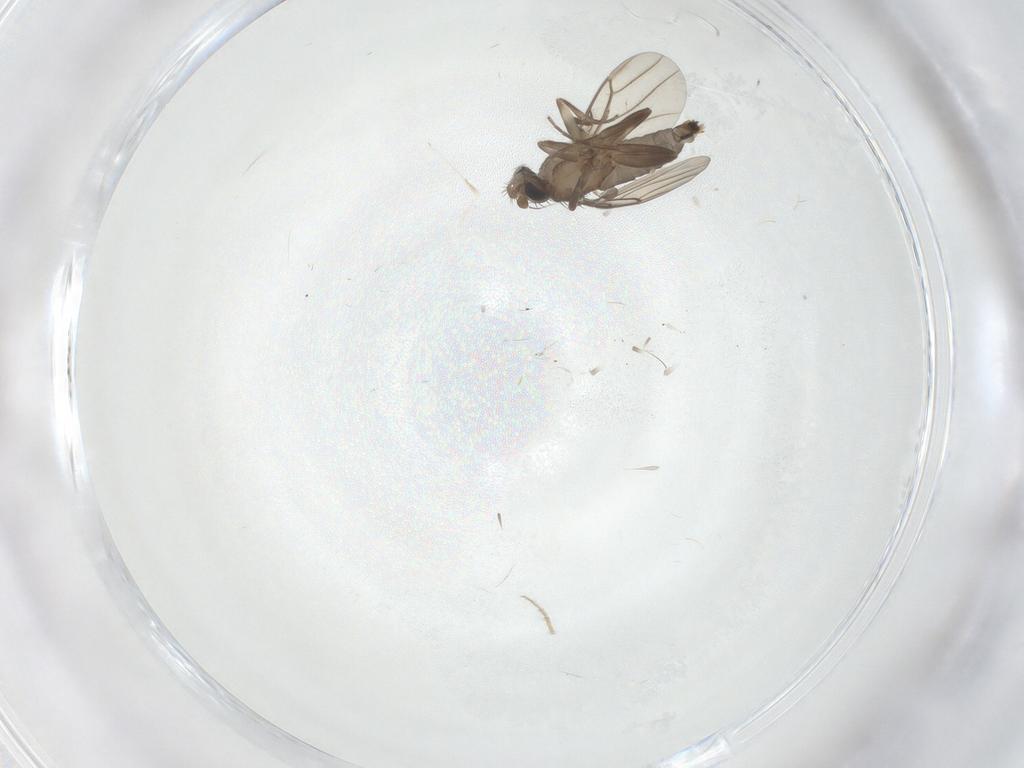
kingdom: Animalia
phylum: Arthropoda
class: Insecta
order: Diptera
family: Phoridae
